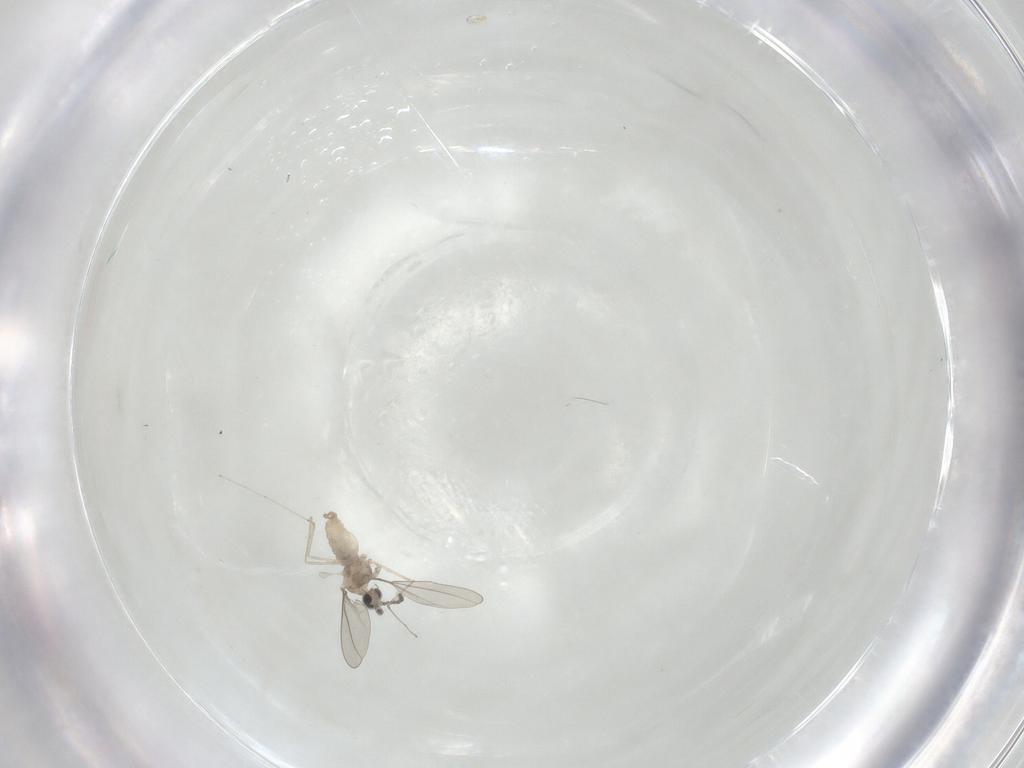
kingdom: Animalia
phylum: Arthropoda
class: Insecta
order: Diptera
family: Cecidomyiidae
